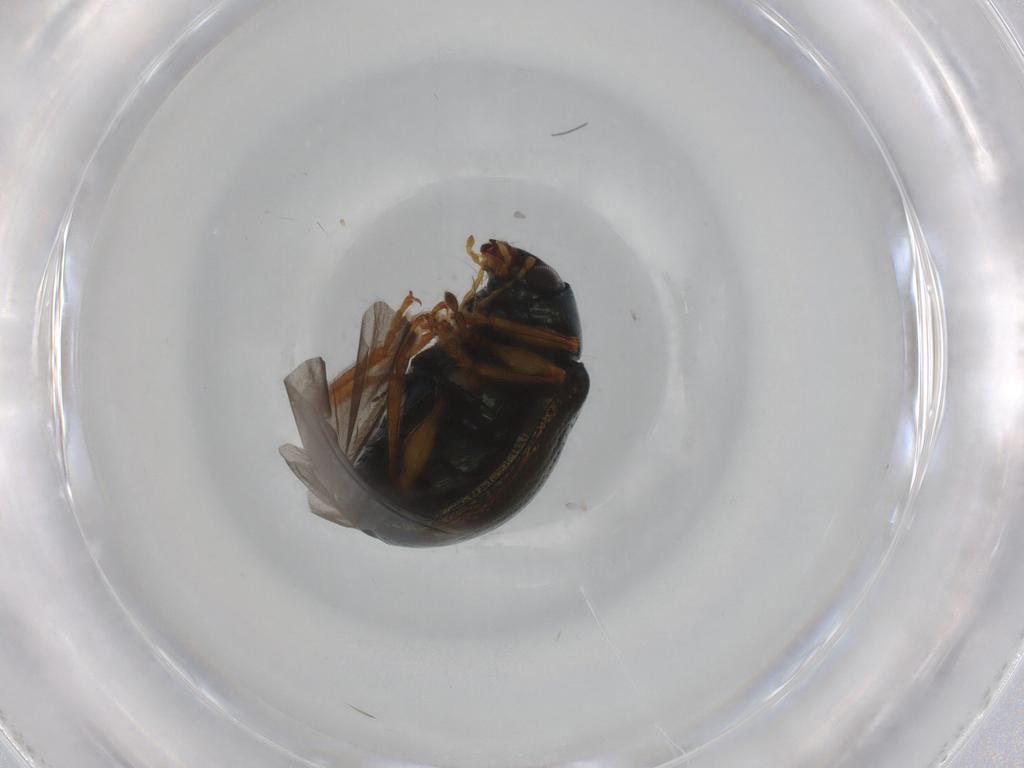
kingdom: Animalia
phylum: Arthropoda
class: Insecta
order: Coleoptera
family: Chrysomelidae
